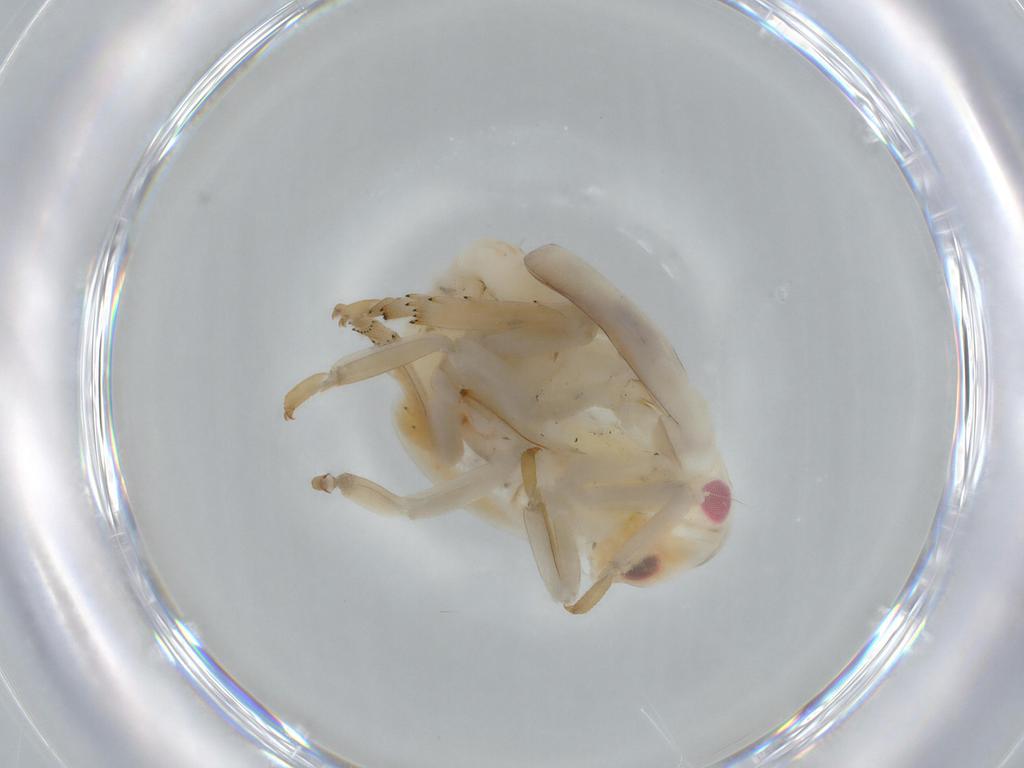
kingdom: Animalia
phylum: Arthropoda
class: Insecta
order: Hemiptera
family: Flatidae
